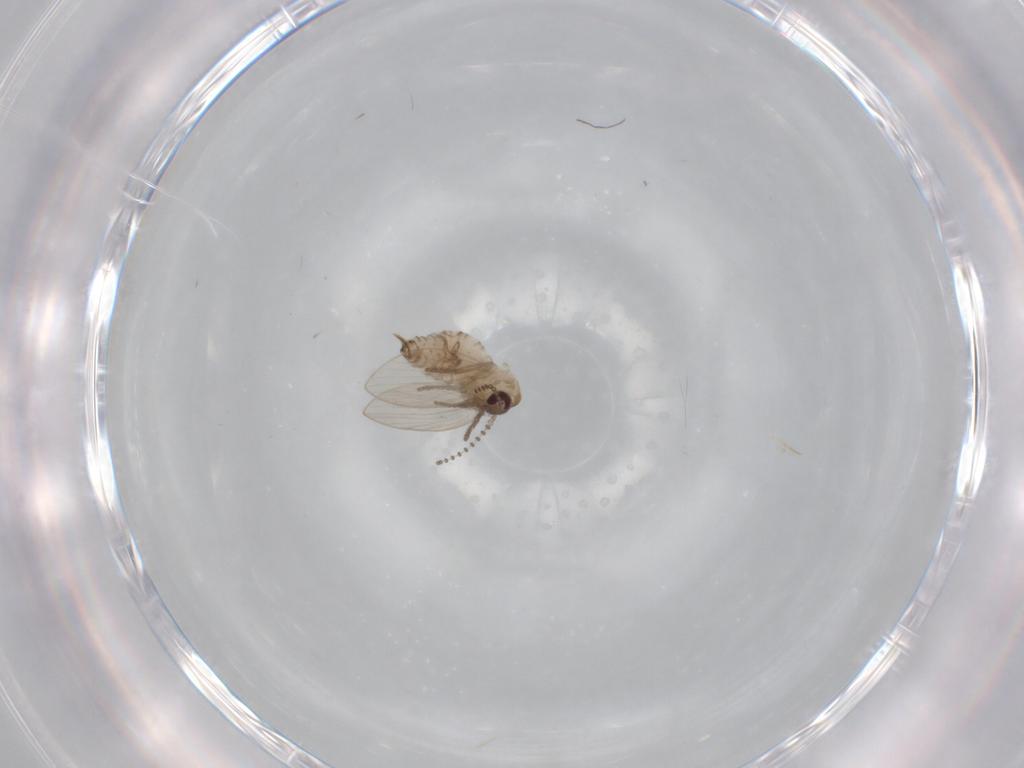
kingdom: Animalia
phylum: Arthropoda
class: Insecta
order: Diptera
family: Psychodidae
